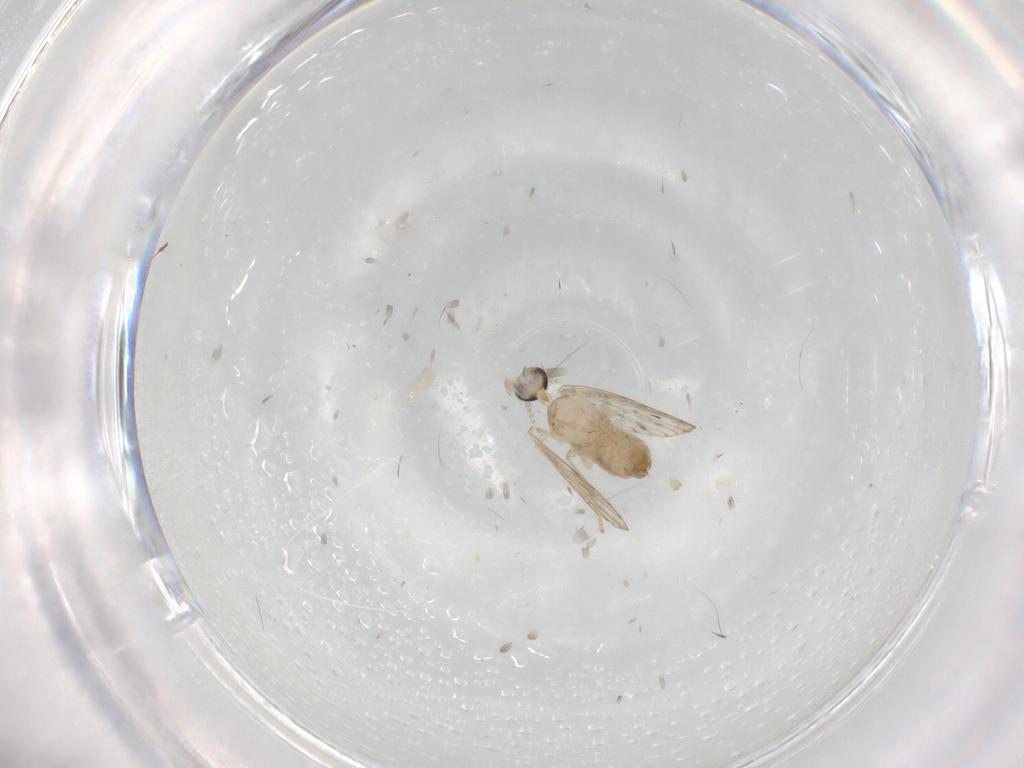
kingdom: Animalia
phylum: Arthropoda
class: Insecta
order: Diptera
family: Psychodidae
